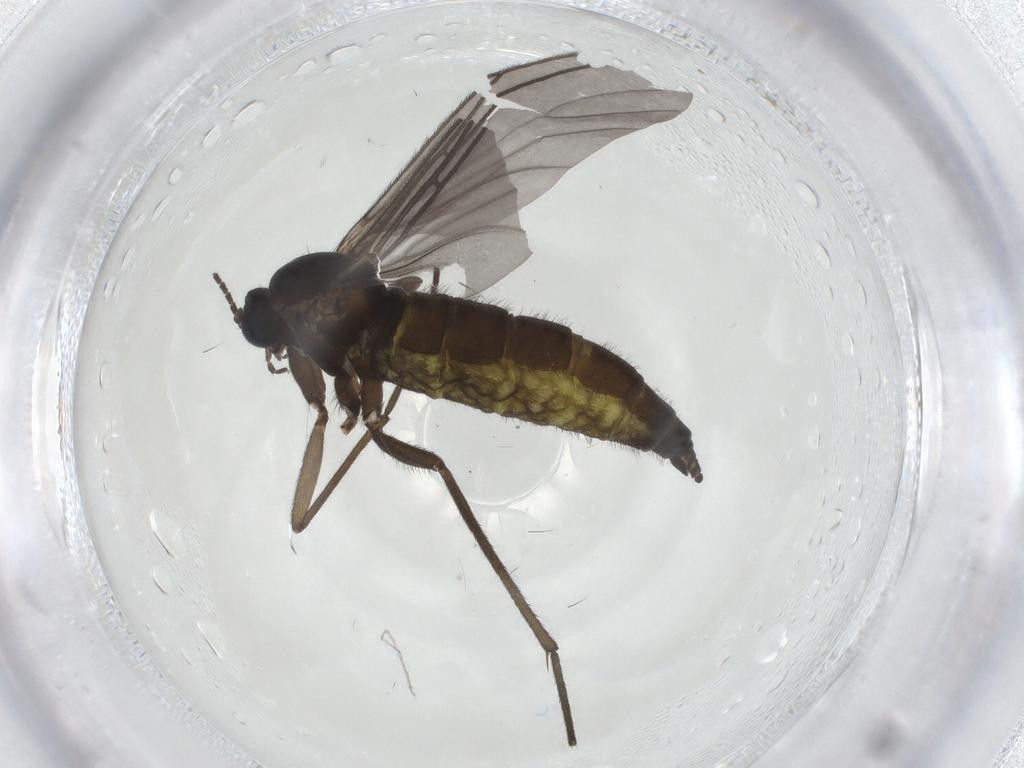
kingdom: Animalia
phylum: Arthropoda
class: Insecta
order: Diptera
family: Sciaridae
